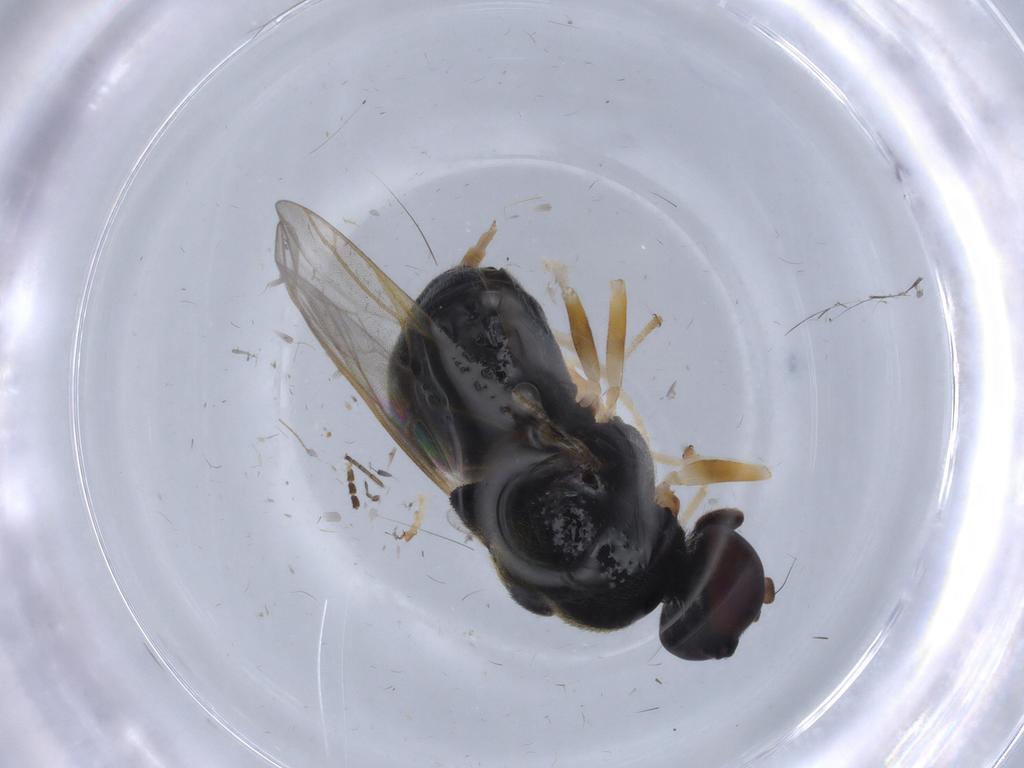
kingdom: Animalia
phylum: Arthropoda
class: Insecta
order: Diptera
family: Stratiomyidae
